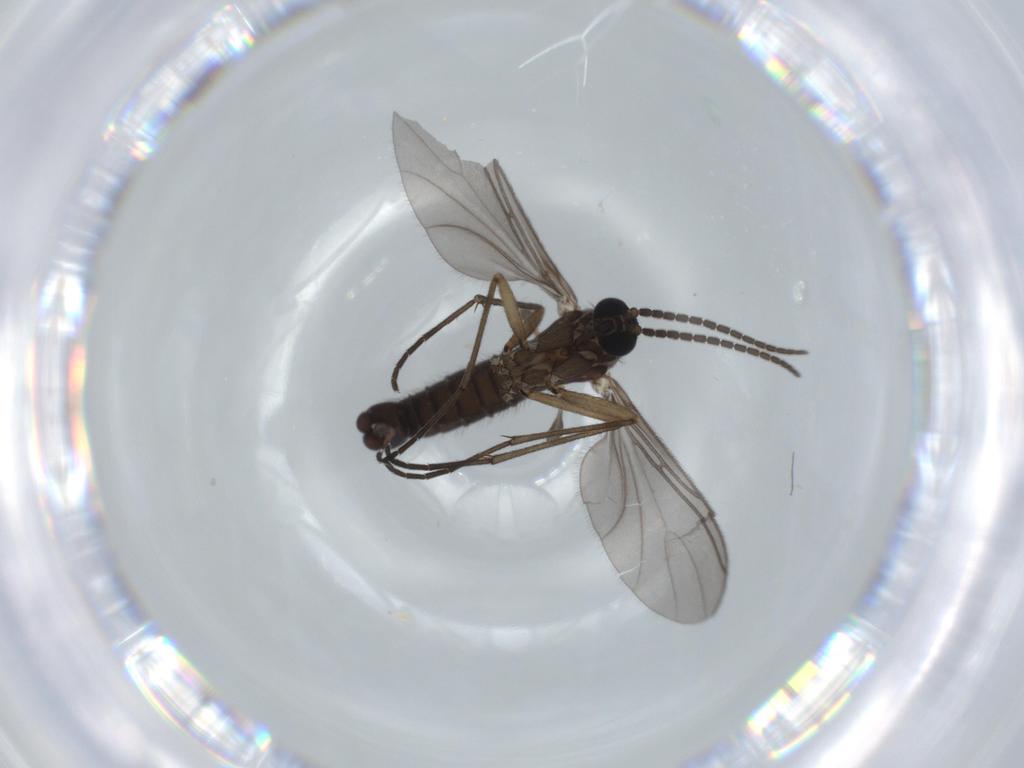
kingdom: Animalia
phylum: Arthropoda
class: Insecta
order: Diptera
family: Sciaridae
